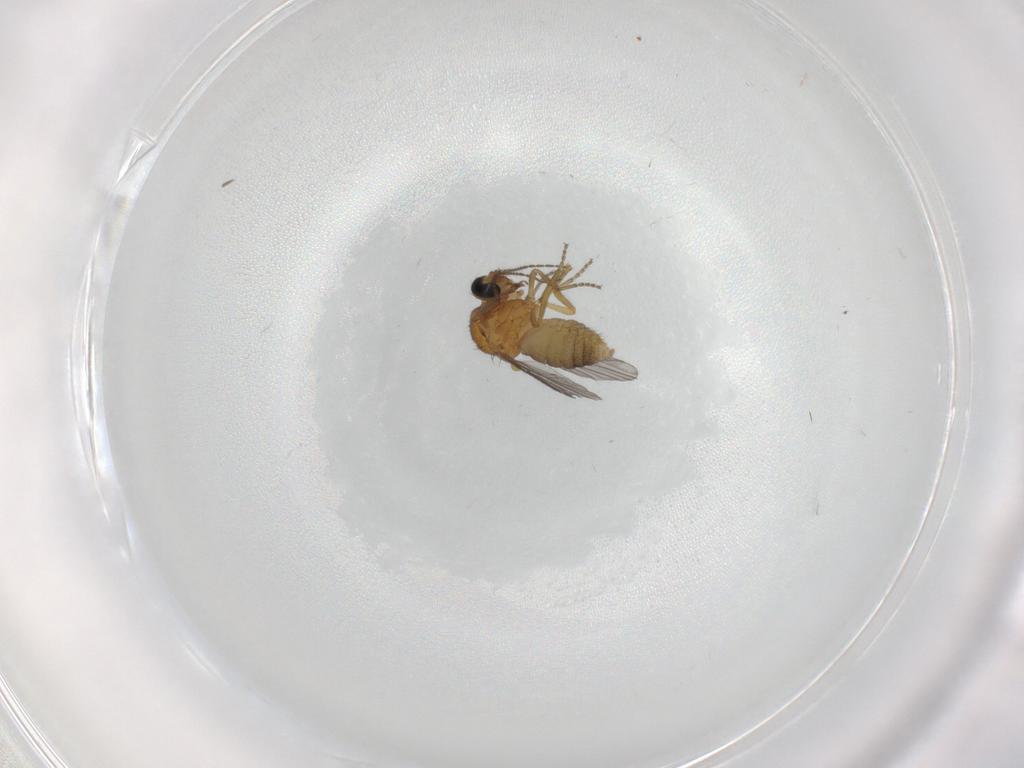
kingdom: Animalia
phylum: Arthropoda
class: Insecta
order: Diptera
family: Ceratopogonidae
